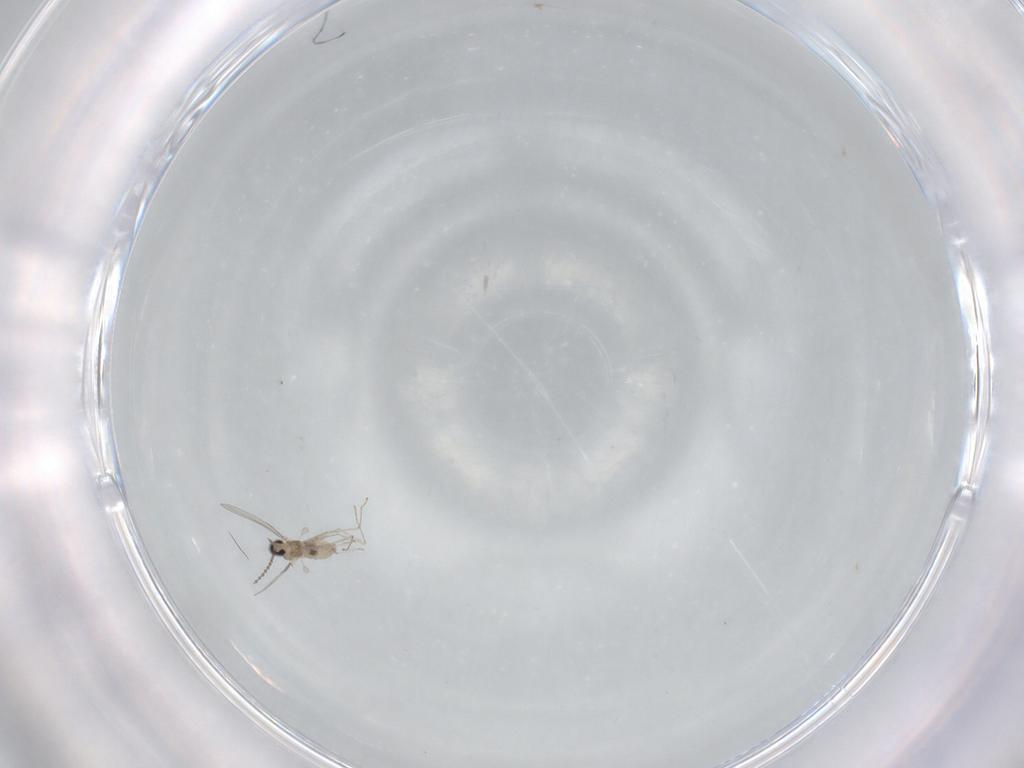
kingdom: Animalia
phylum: Arthropoda
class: Insecta
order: Diptera
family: Cecidomyiidae
